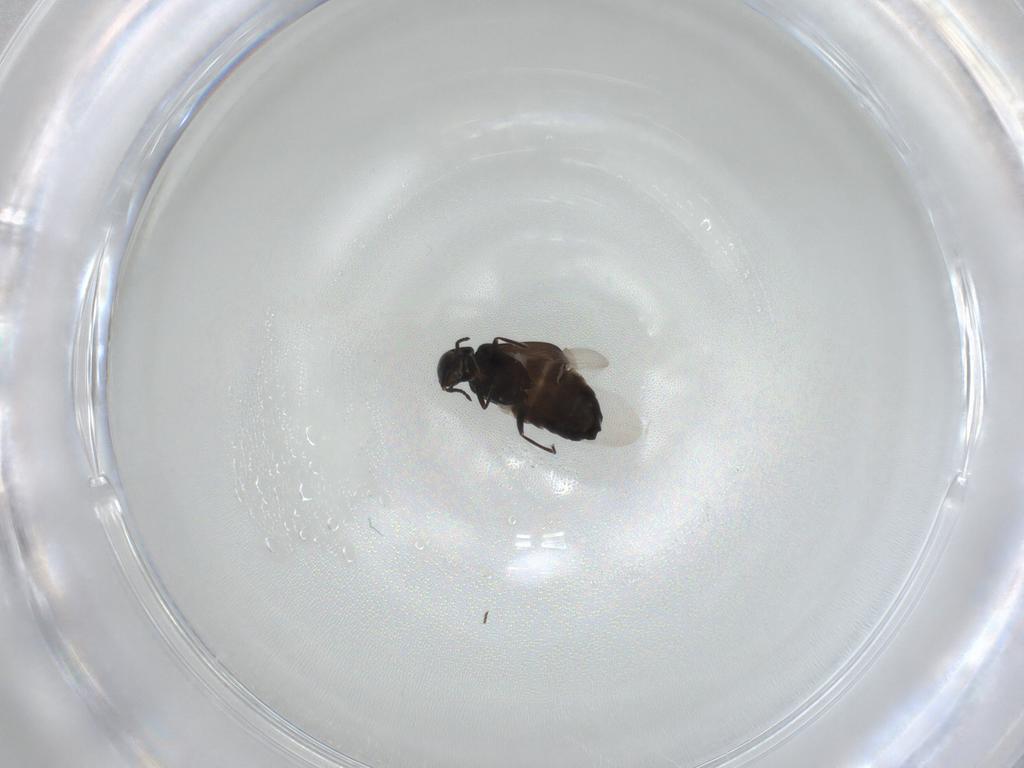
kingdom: Animalia
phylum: Arthropoda
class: Insecta
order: Coleoptera
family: Melyridae
